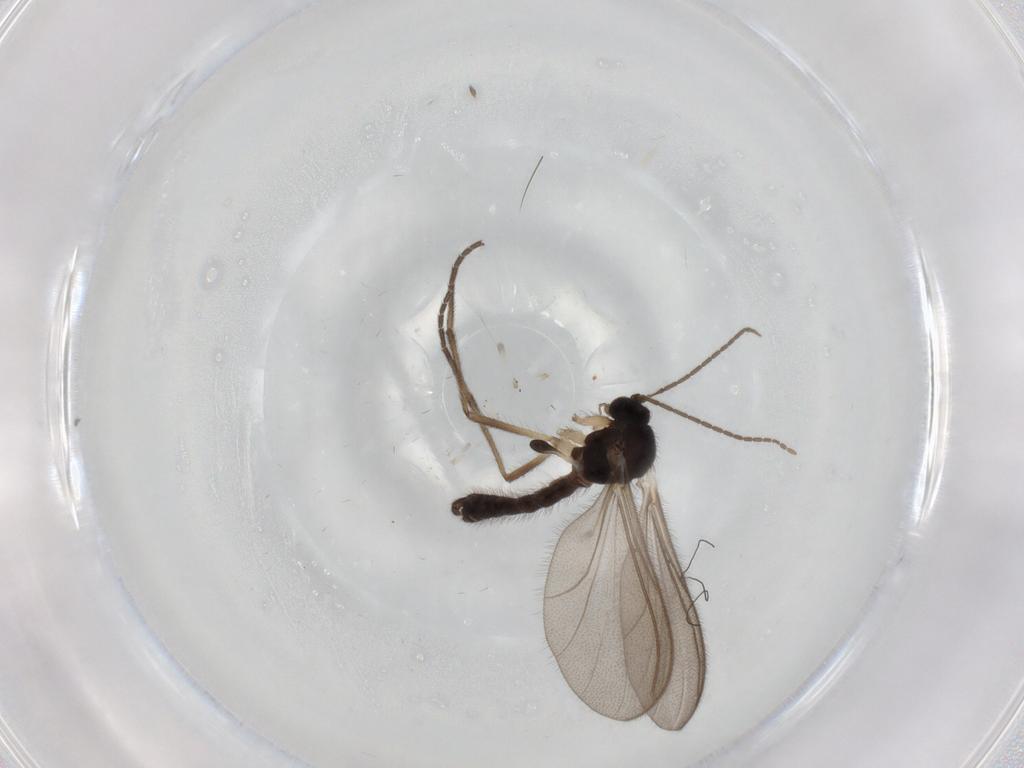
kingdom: Animalia
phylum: Arthropoda
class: Insecta
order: Diptera
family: Mycetophilidae
